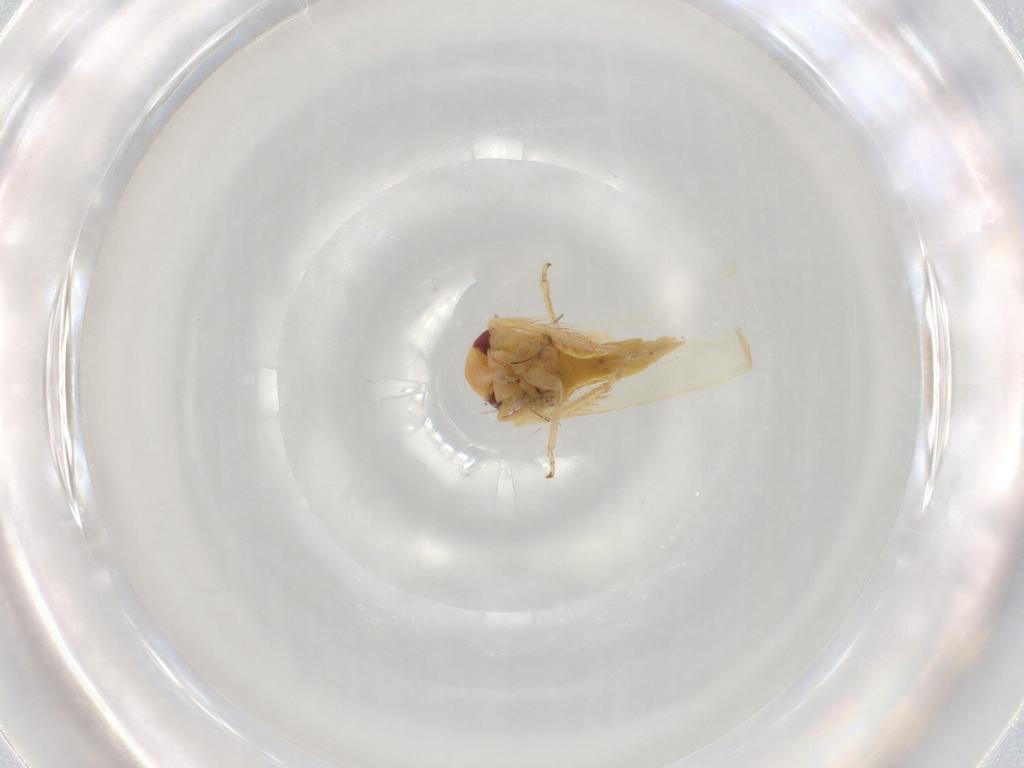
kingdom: Animalia
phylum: Arthropoda
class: Insecta
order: Hemiptera
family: Cicadellidae
